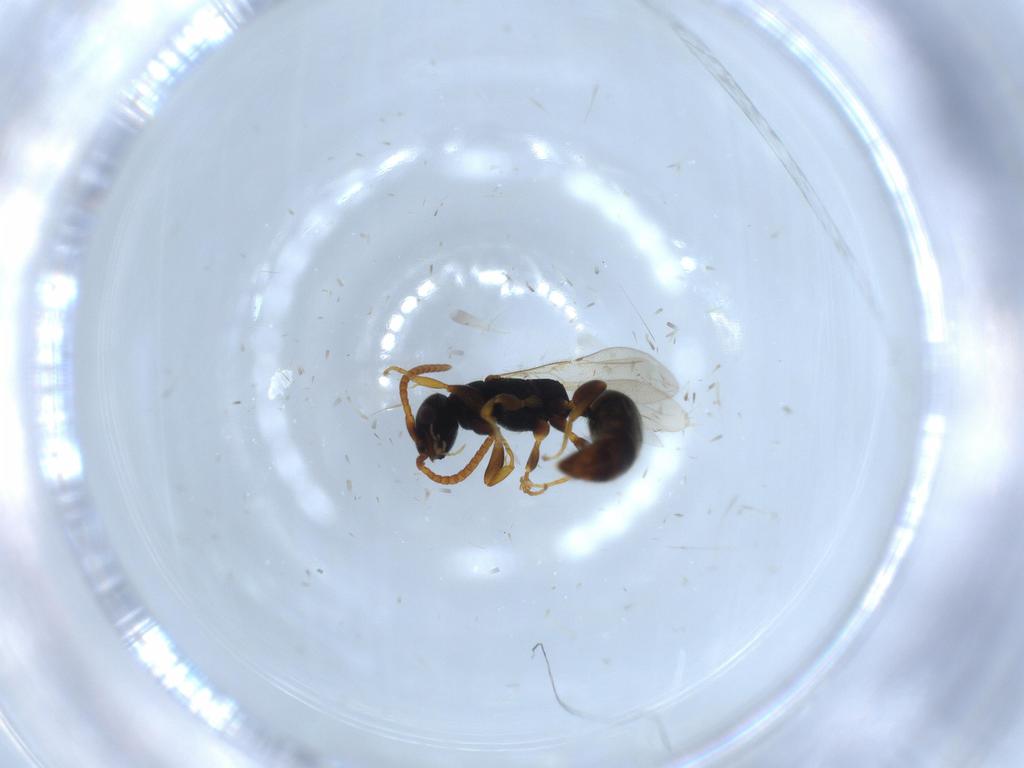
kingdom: Animalia
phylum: Arthropoda
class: Insecta
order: Hymenoptera
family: Bethylidae
